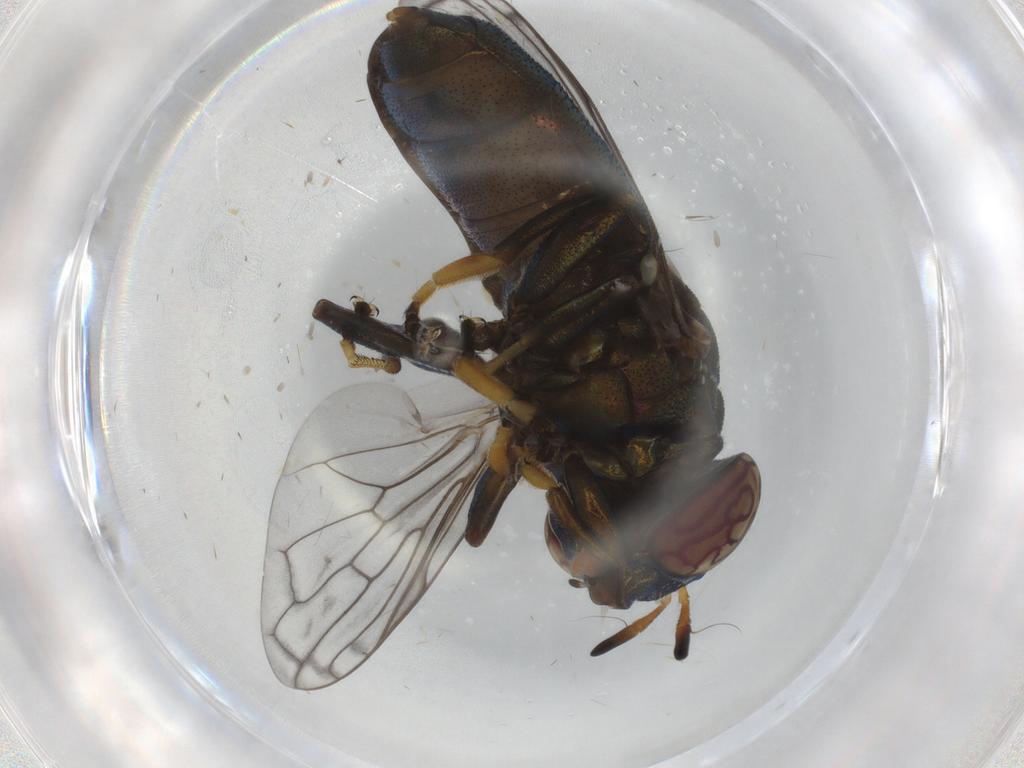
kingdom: Animalia
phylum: Arthropoda
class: Insecta
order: Diptera
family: Syrphidae
